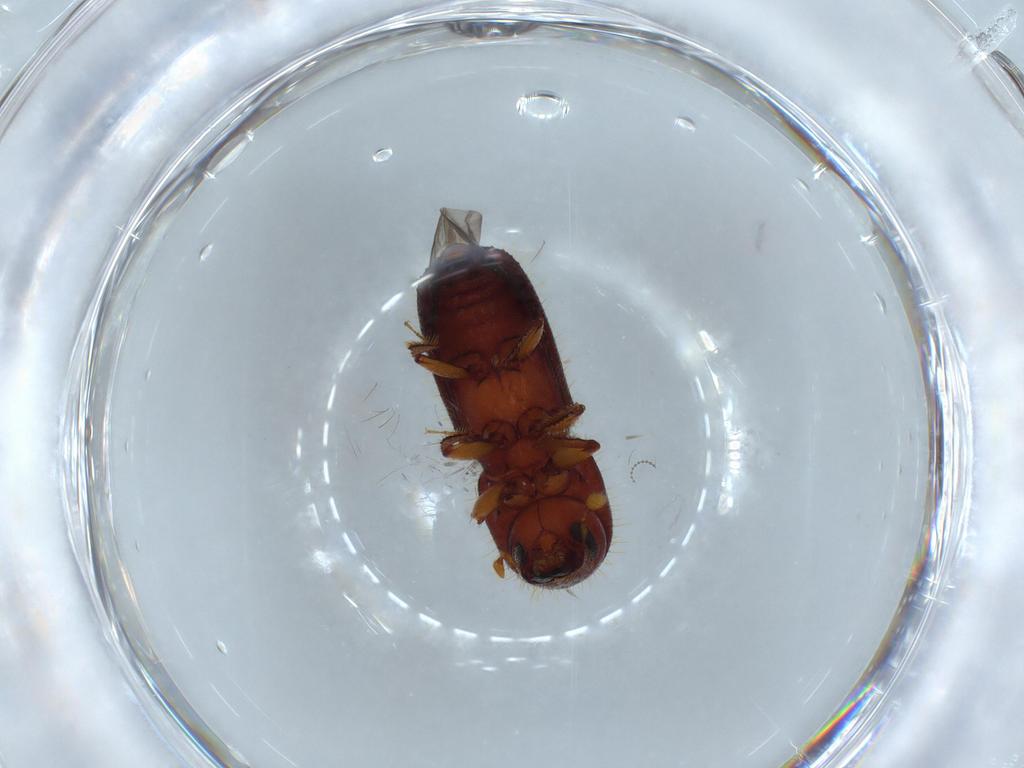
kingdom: Animalia
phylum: Arthropoda
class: Insecta
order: Coleoptera
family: Curculionidae
